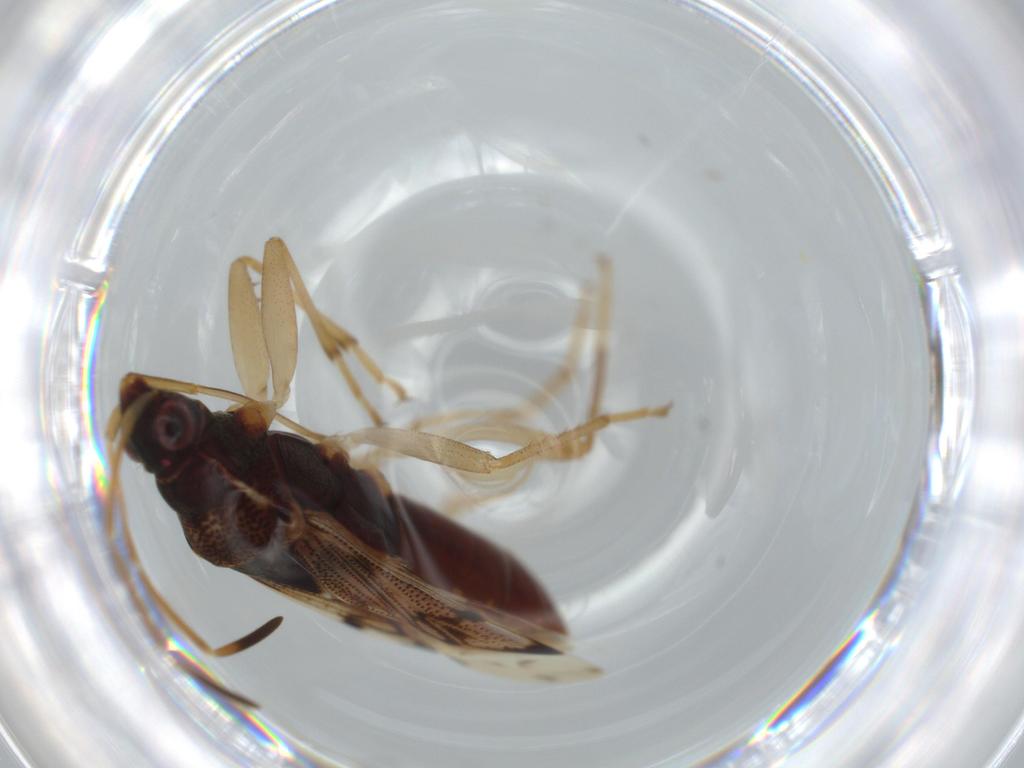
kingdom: Animalia
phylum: Arthropoda
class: Insecta
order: Hemiptera
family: Rhyparochromidae
